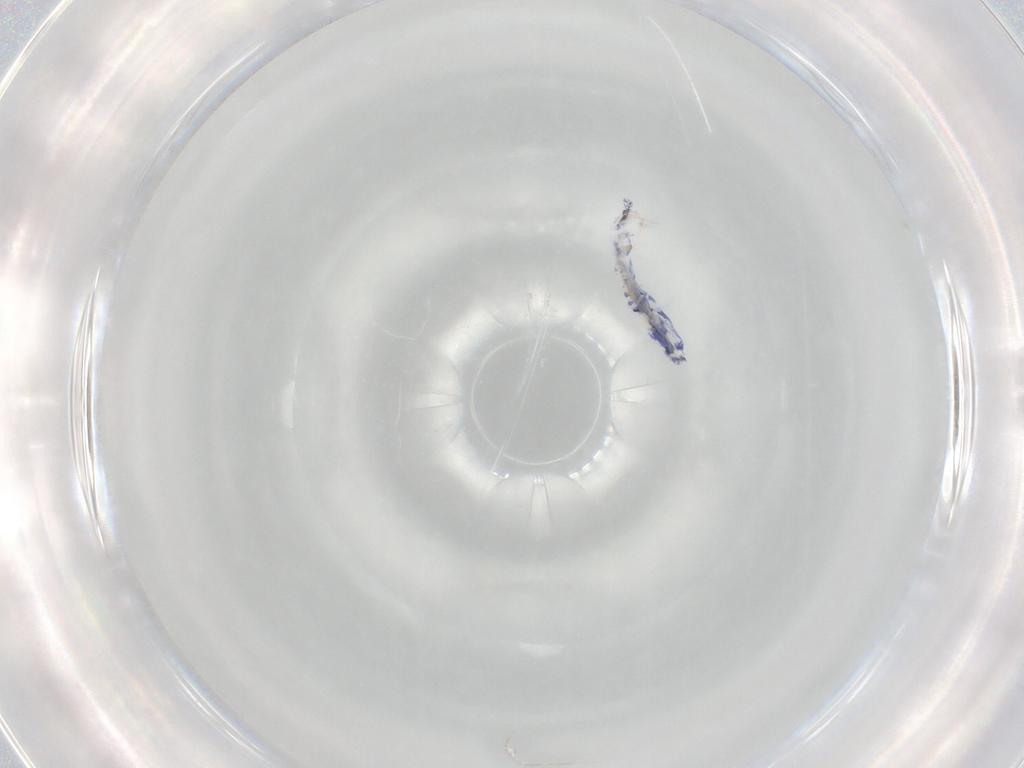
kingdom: Animalia
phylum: Arthropoda
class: Collembola
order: Entomobryomorpha
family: Entomobryidae
